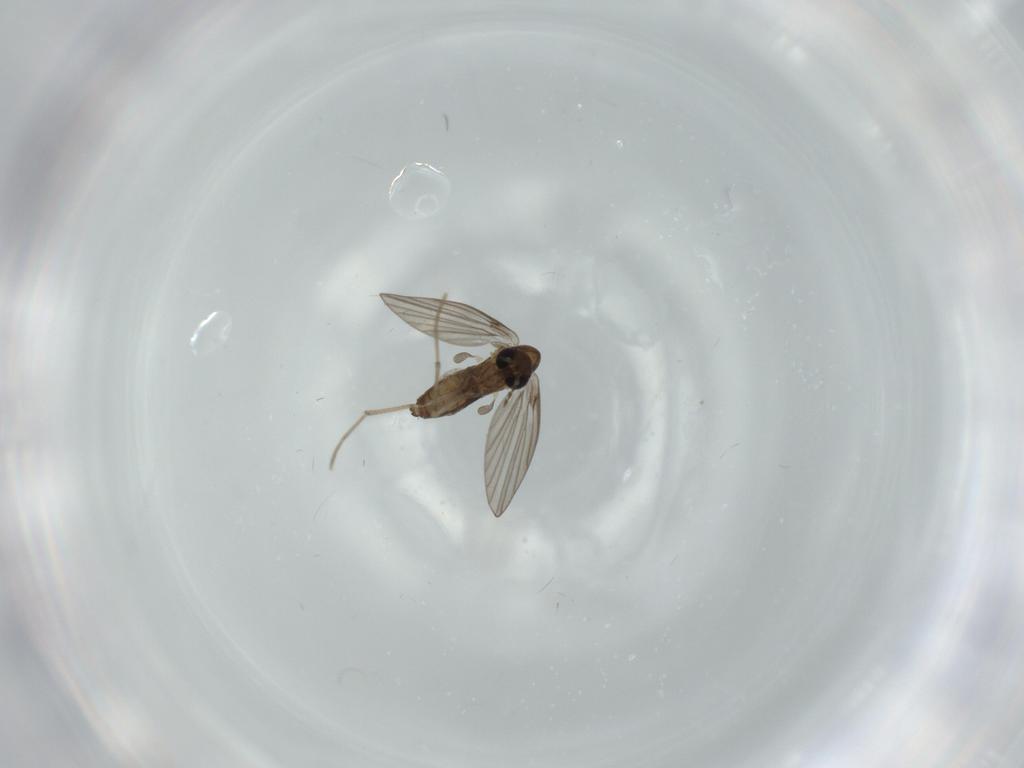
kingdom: Animalia
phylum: Arthropoda
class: Insecta
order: Diptera
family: Psychodidae
